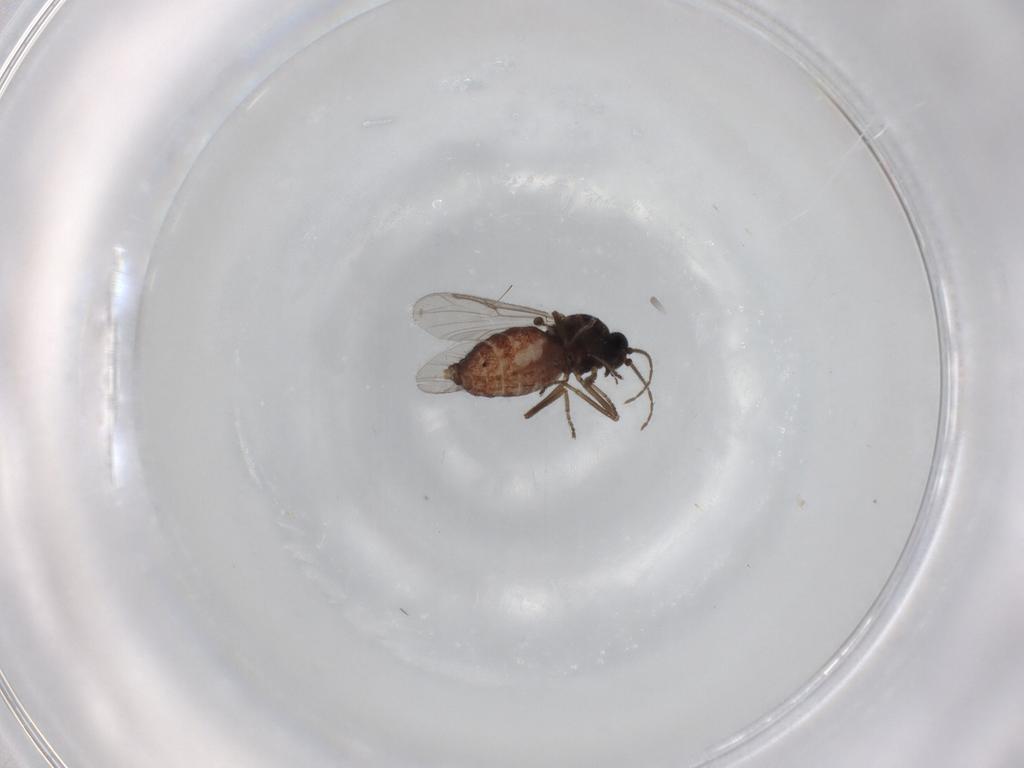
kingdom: Animalia
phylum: Arthropoda
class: Insecta
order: Diptera
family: Ceratopogonidae
